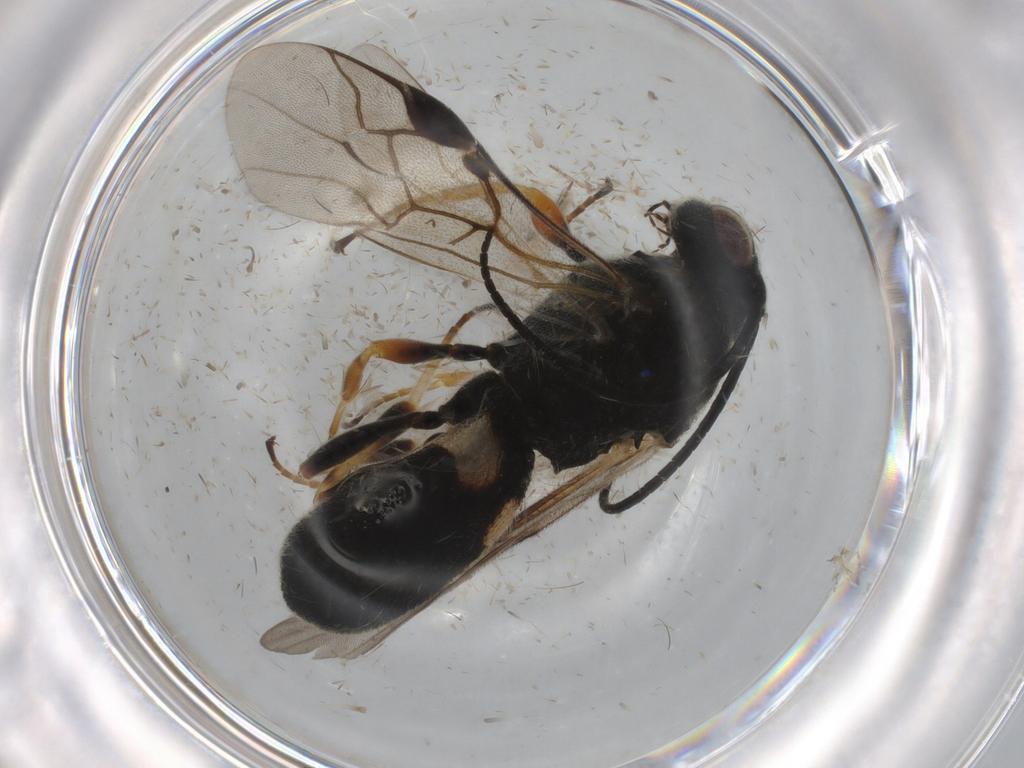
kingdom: Animalia
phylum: Arthropoda
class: Insecta
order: Hymenoptera
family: Braconidae
